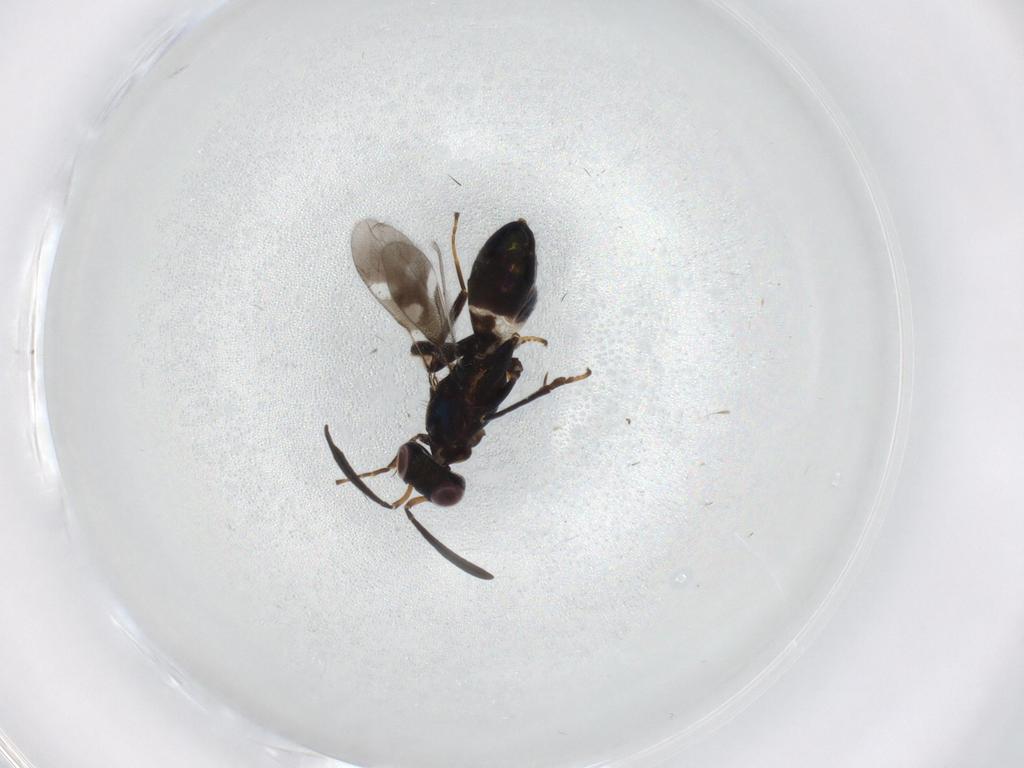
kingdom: Animalia
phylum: Arthropoda
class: Insecta
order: Hymenoptera
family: Eupelmidae
